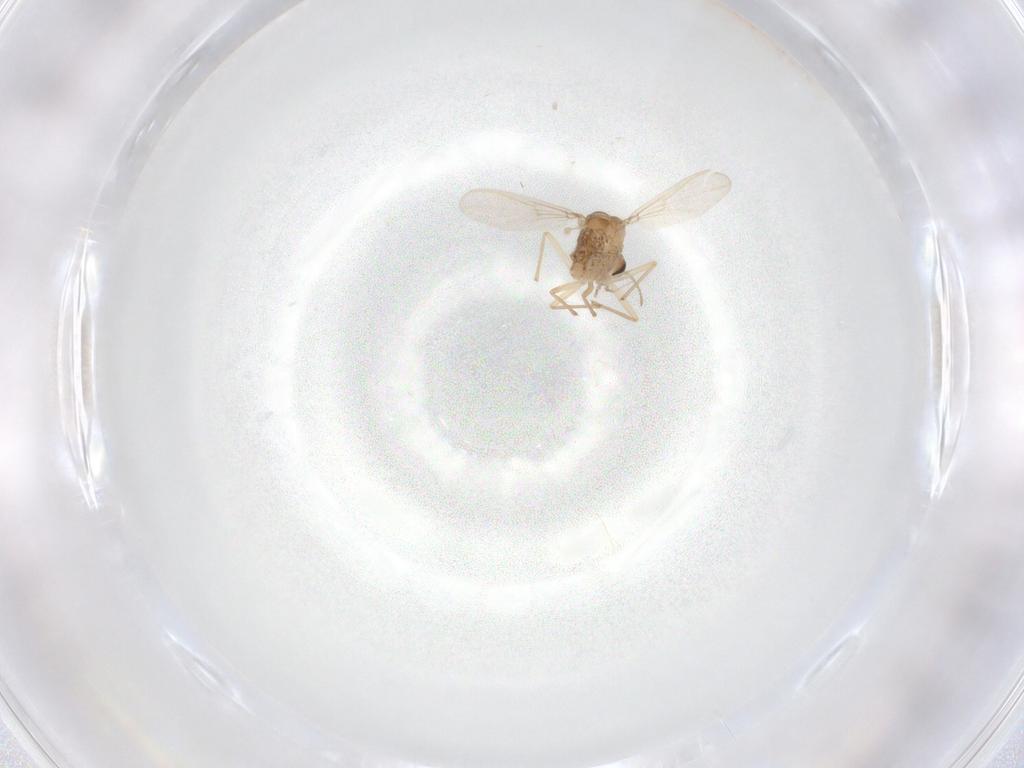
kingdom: Animalia
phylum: Arthropoda
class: Insecta
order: Diptera
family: Chironomidae
